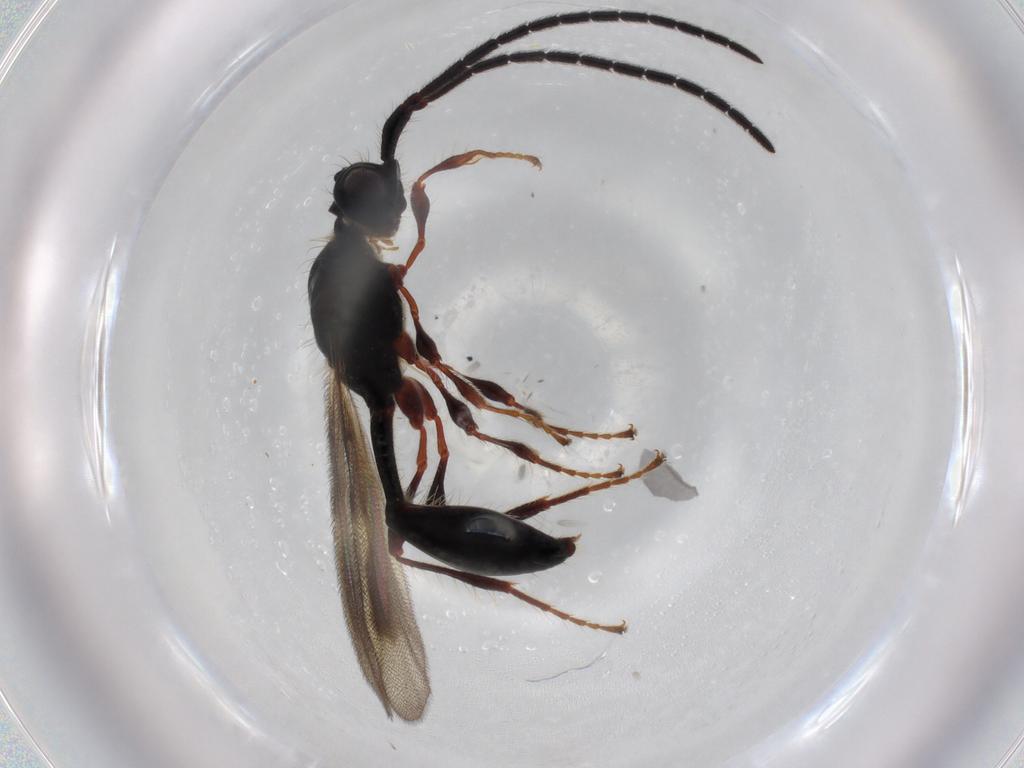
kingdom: Animalia
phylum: Arthropoda
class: Insecta
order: Hymenoptera
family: Diapriidae
